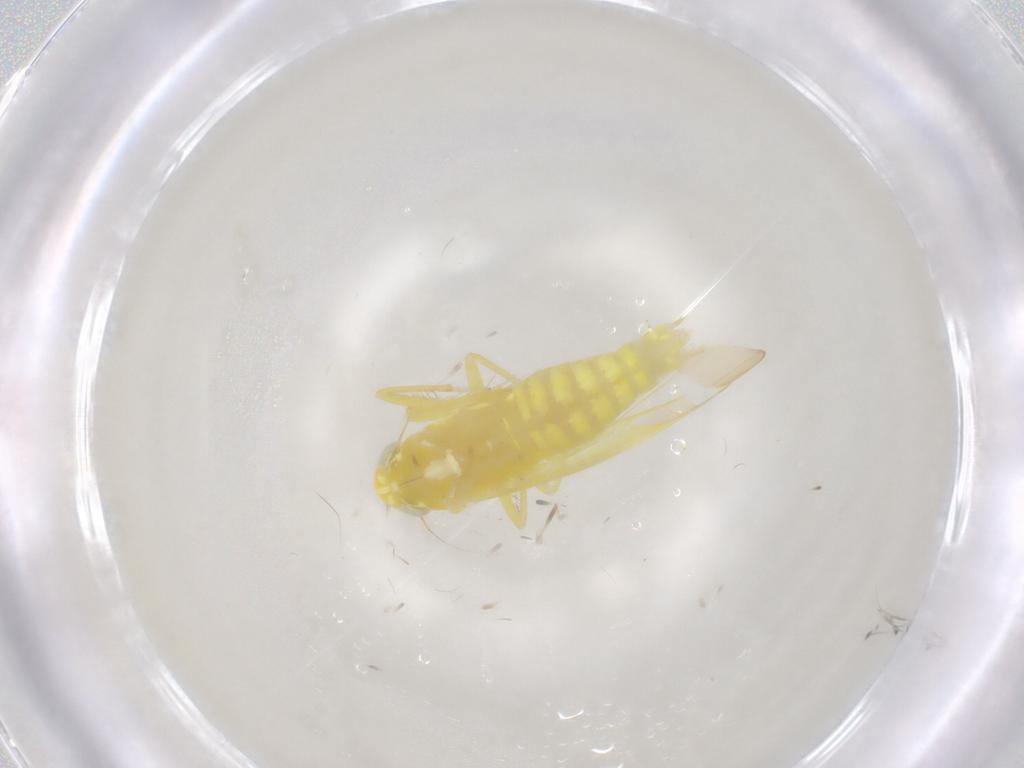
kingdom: Animalia
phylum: Arthropoda
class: Insecta
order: Hemiptera
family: Cicadellidae
